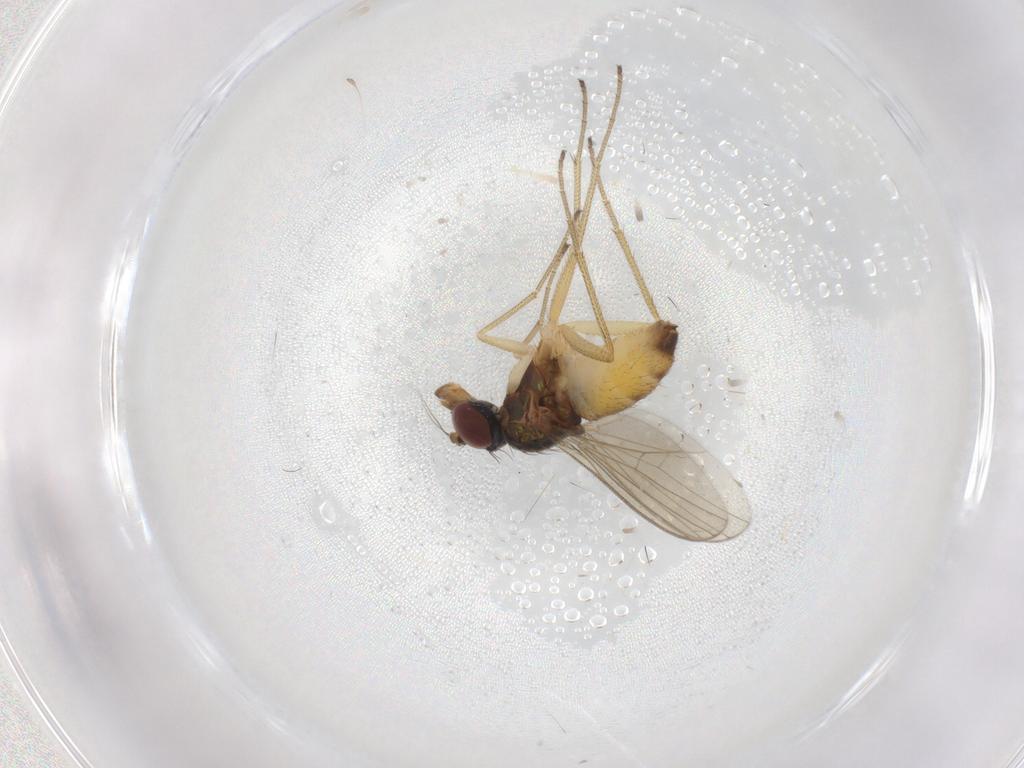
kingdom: Animalia
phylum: Arthropoda
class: Insecta
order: Diptera
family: Dolichopodidae
